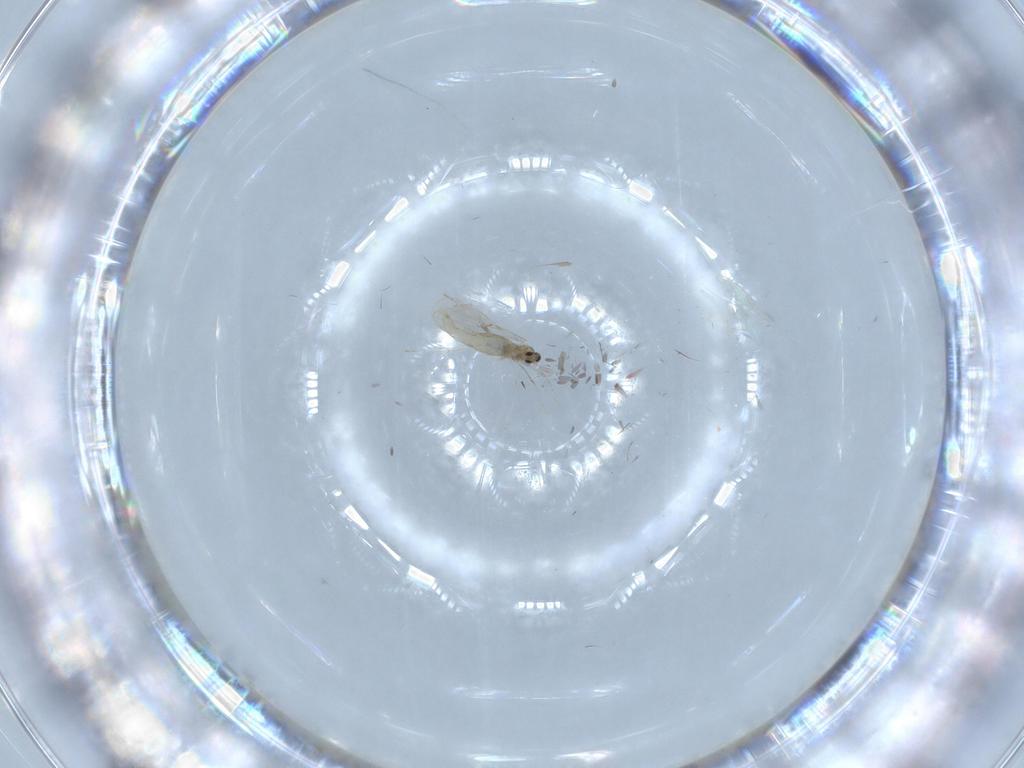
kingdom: Animalia
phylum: Arthropoda
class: Insecta
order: Diptera
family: Cecidomyiidae
